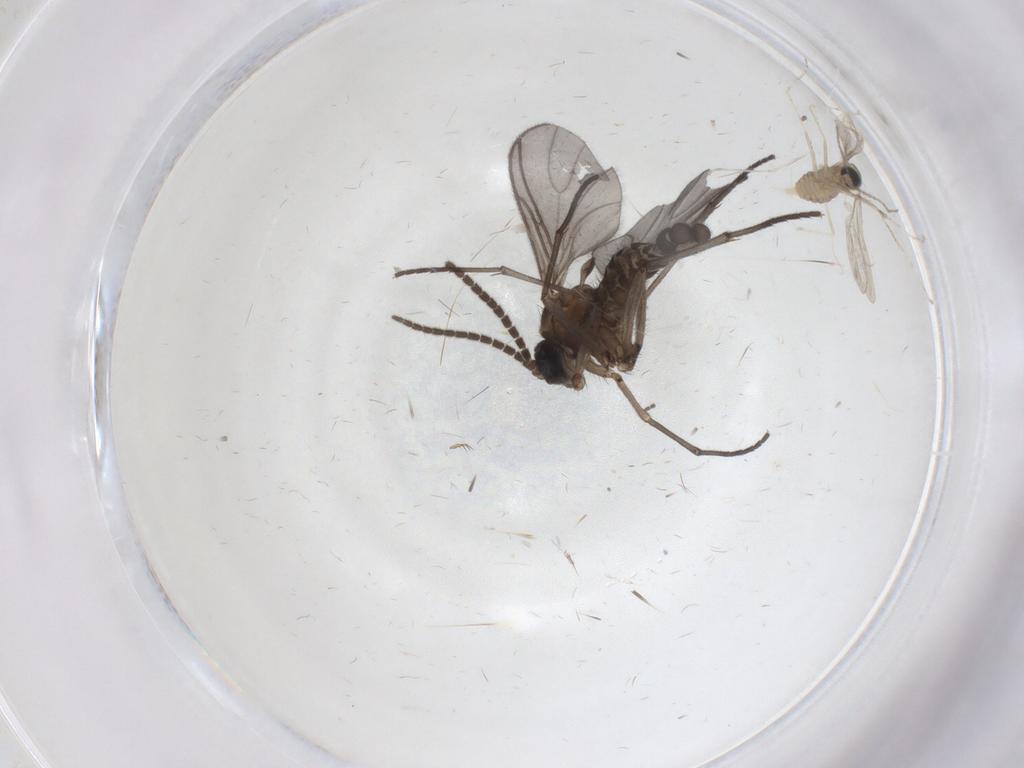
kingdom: Animalia
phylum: Arthropoda
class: Insecta
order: Diptera
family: Sciaridae
